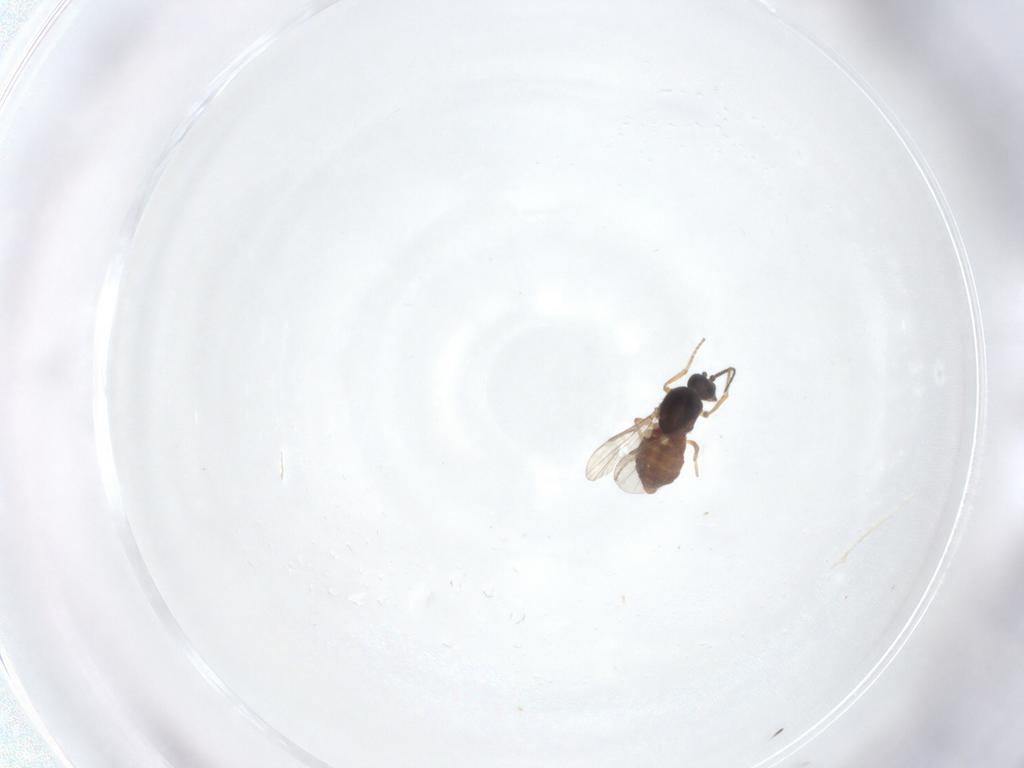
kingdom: Animalia
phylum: Arthropoda
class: Insecta
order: Diptera
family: Ceratopogonidae
